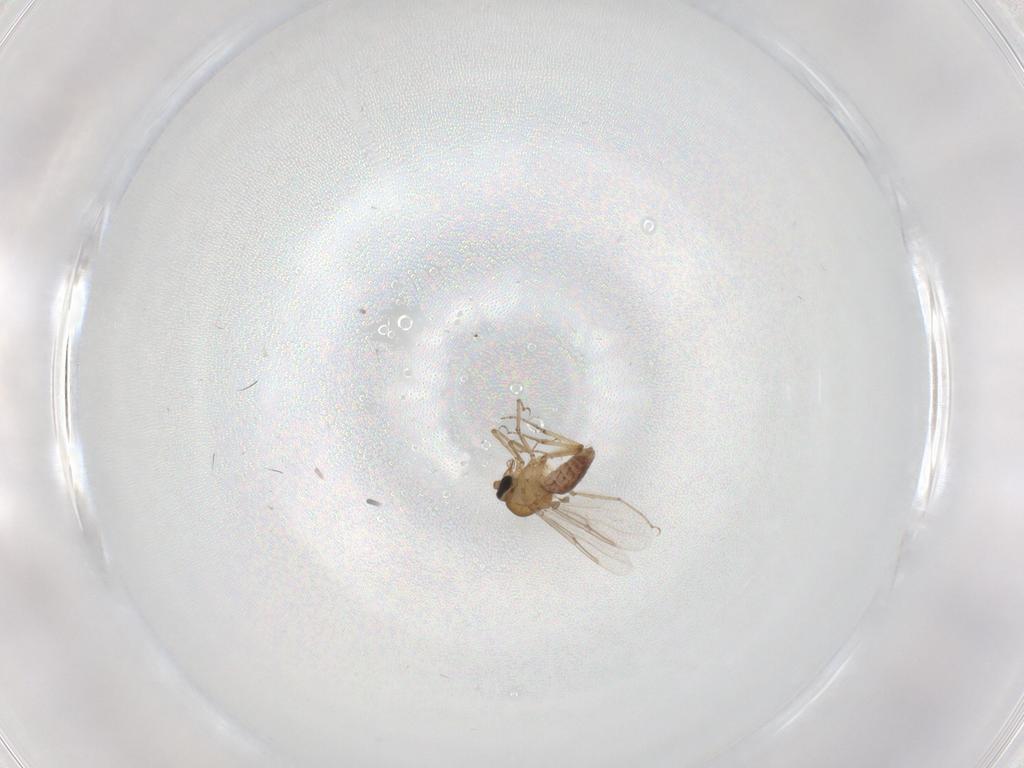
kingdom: Animalia
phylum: Arthropoda
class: Insecta
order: Diptera
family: Ceratopogonidae
